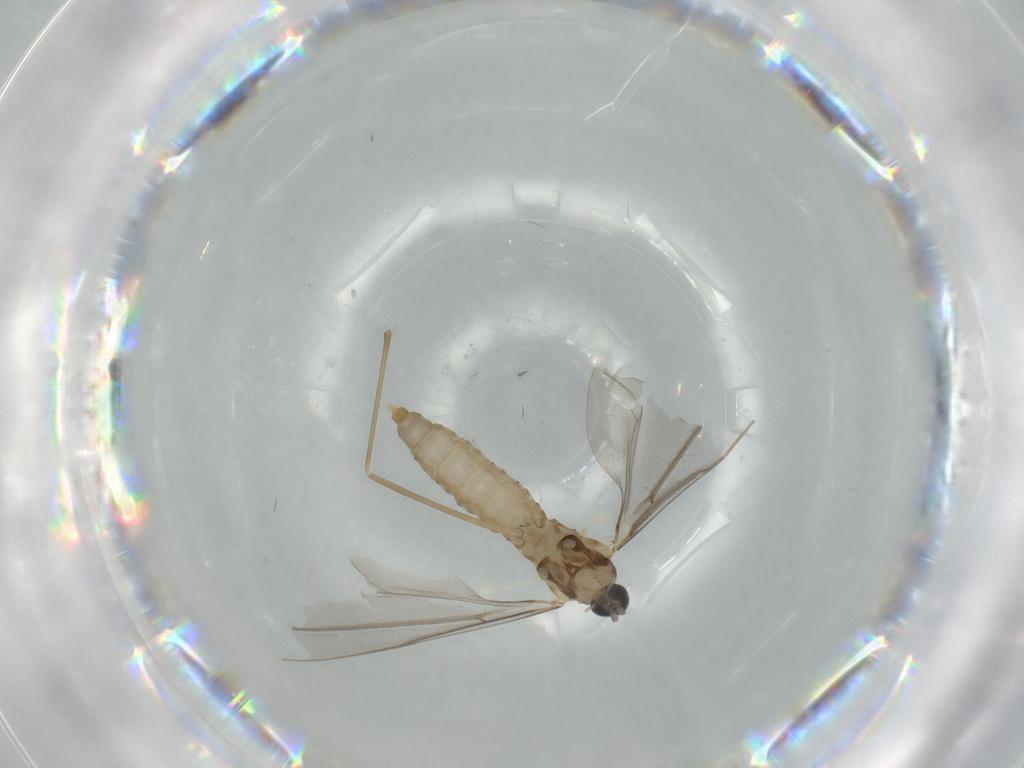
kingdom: Animalia
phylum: Arthropoda
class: Insecta
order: Diptera
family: Cecidomyiidae
